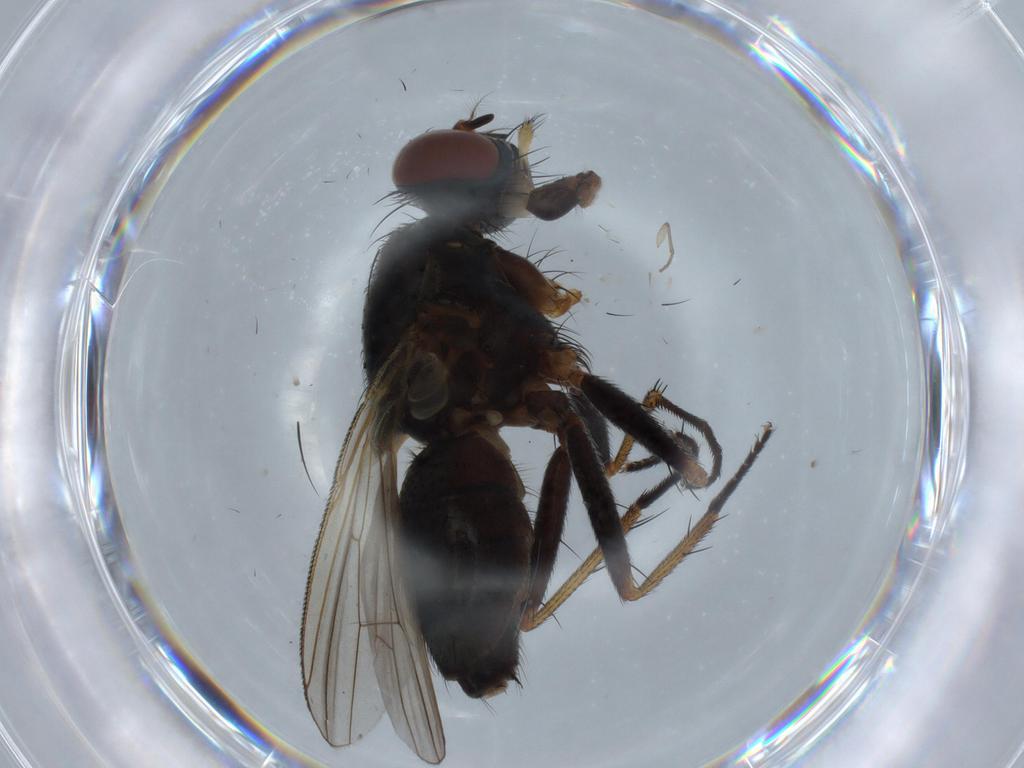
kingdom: Animalia
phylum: Arthropoda
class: Insecta
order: Diptera
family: Muscidae
